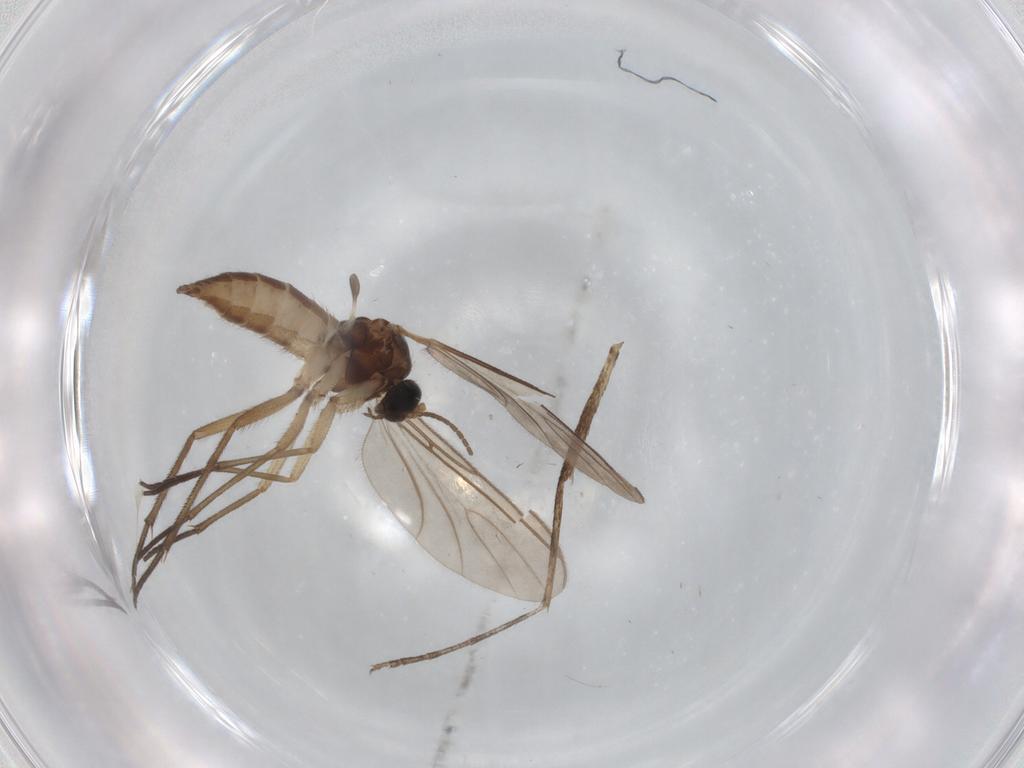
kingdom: Animalia
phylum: Arthropoda
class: Insecta
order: Diptera
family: Sciaridae
